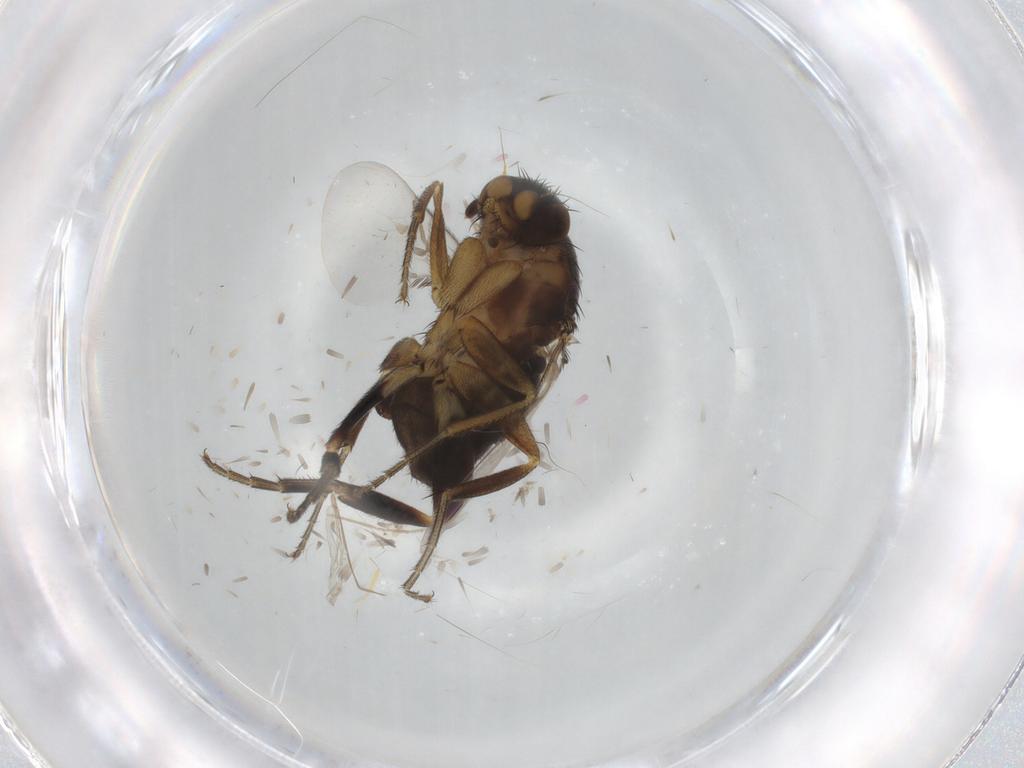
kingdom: Animalia
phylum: Arthropoda
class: Insecta
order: Diptera
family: Phoridae
